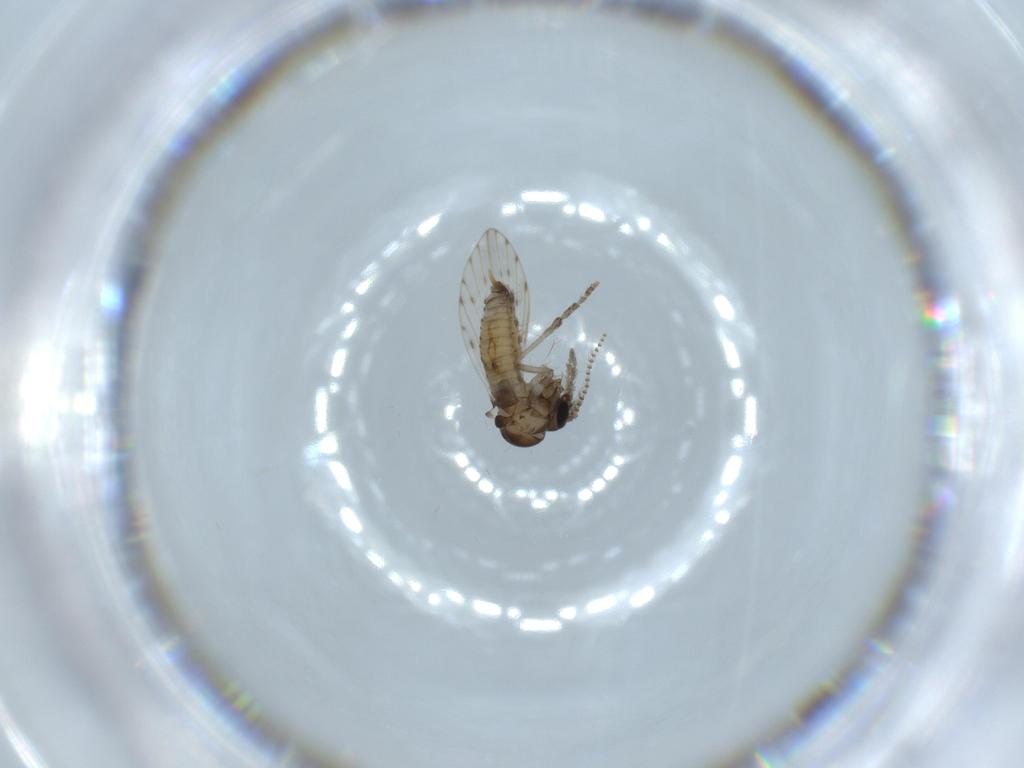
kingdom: Animalia
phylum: Arthropoda
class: Insecta
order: Diptera
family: Psychodidae
